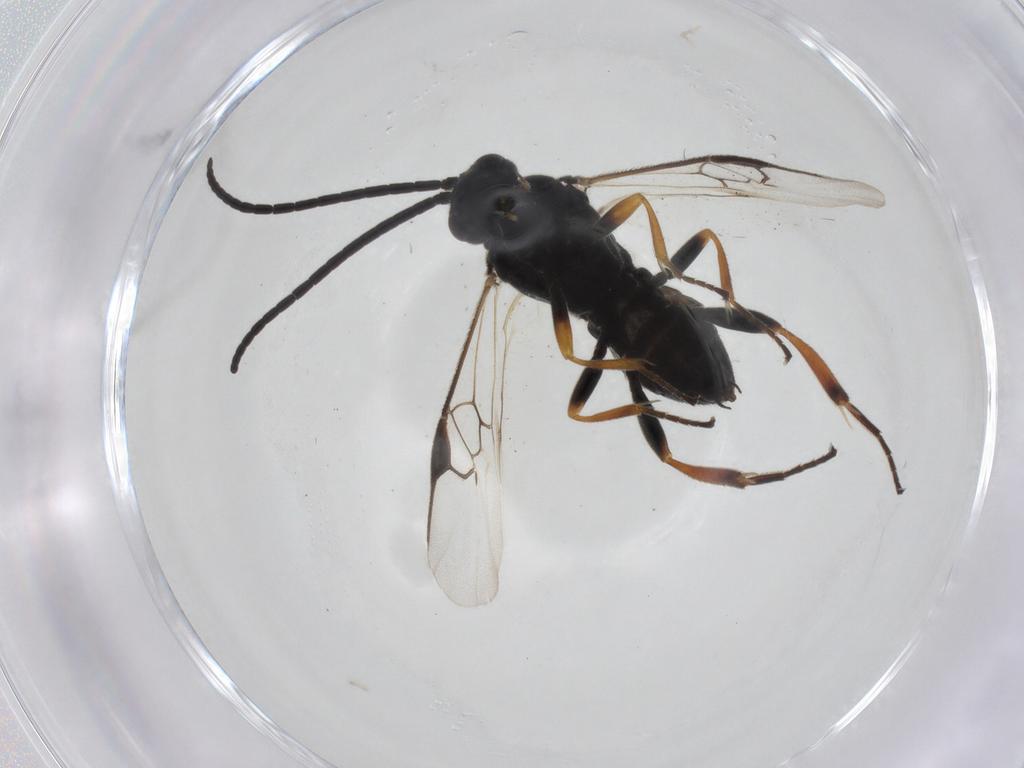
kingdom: Animalia
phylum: Arthropoda
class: Insecta
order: Hymenoptera
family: Braconidae
